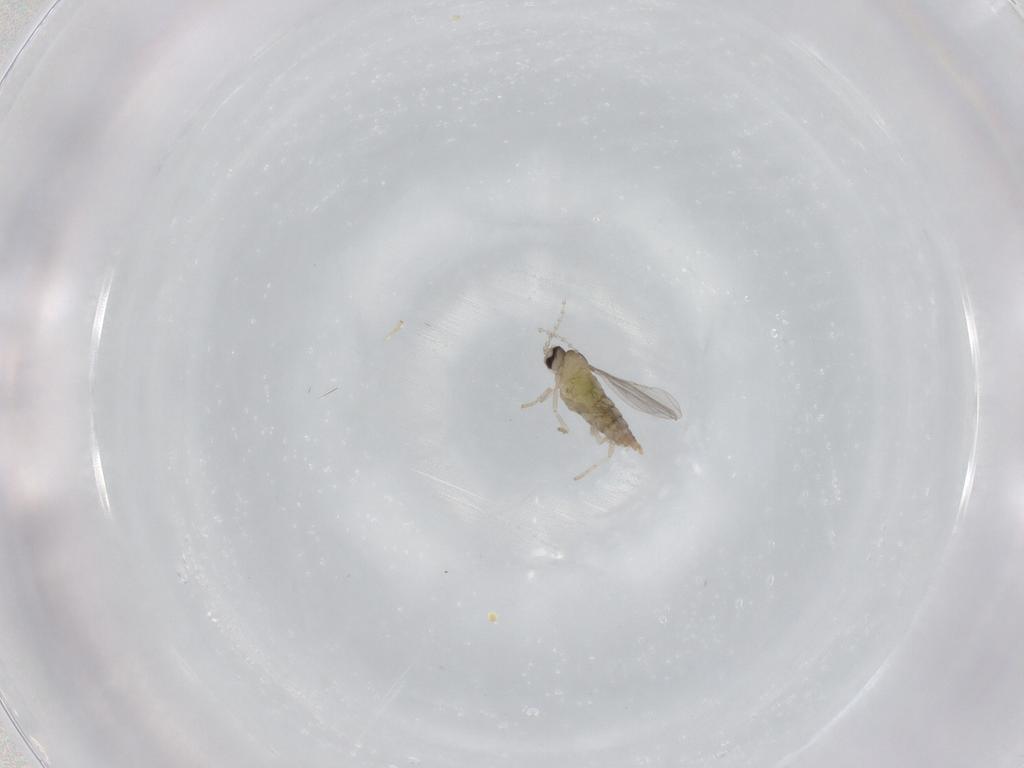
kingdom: Animalia
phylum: Arthropoda
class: Insecta
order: Diptera
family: Cecidomyiidae
